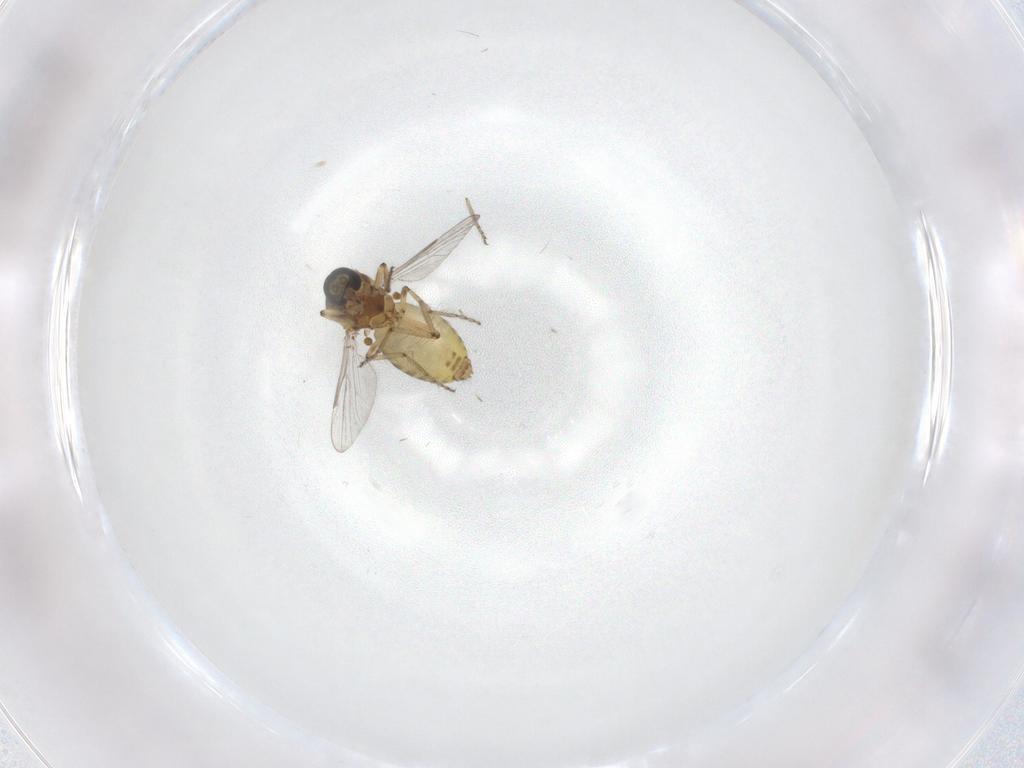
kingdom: Animalia
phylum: Arthropoda
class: Insecta
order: Diptera
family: Ceratopogonidae
